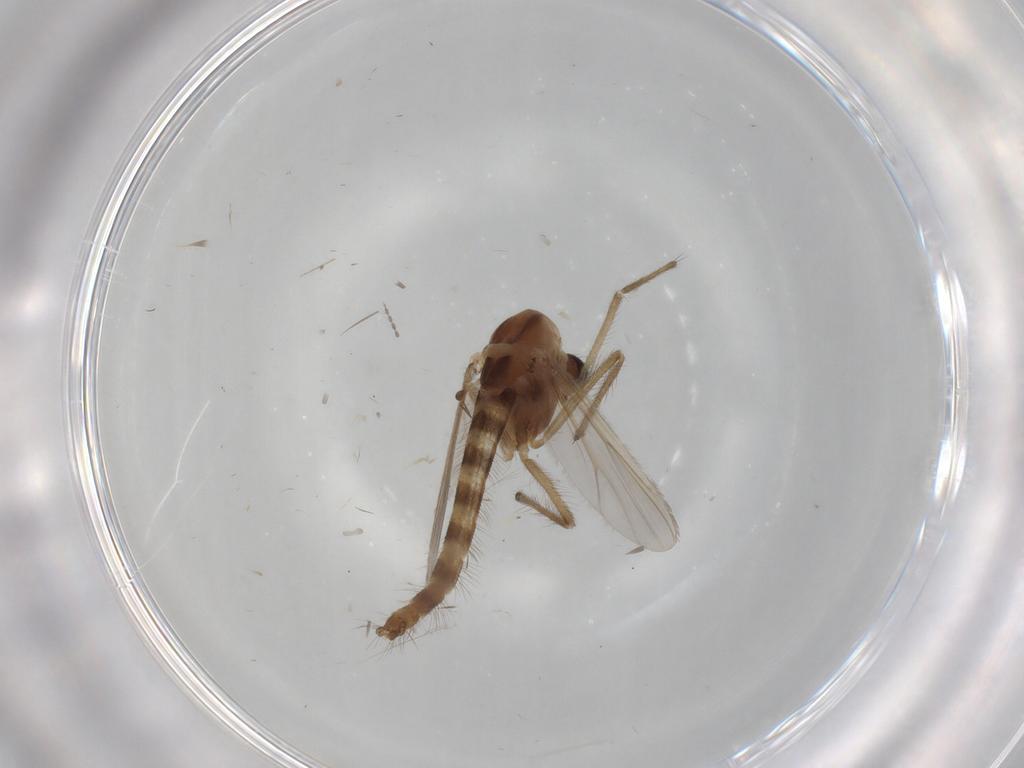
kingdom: Animalia
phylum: Arthropoda
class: Insecta
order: Diptera
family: Chironomidae
